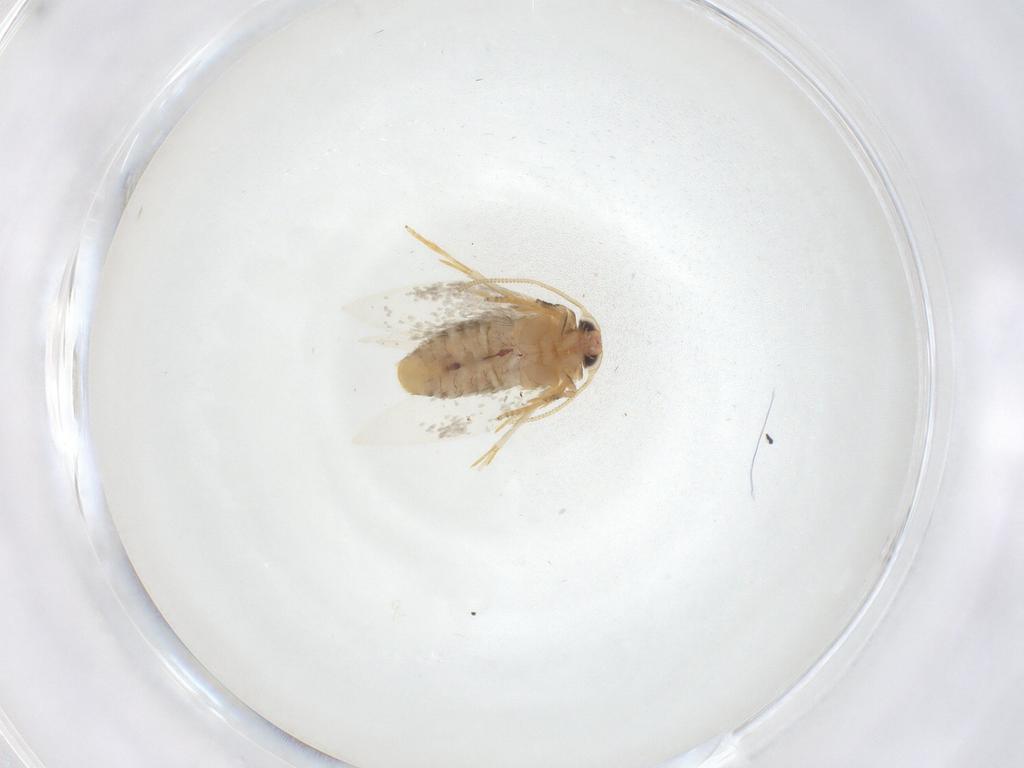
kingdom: Animalia
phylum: Arthropoda
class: Insecta
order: Lepidoptera
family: Nepticulidae
